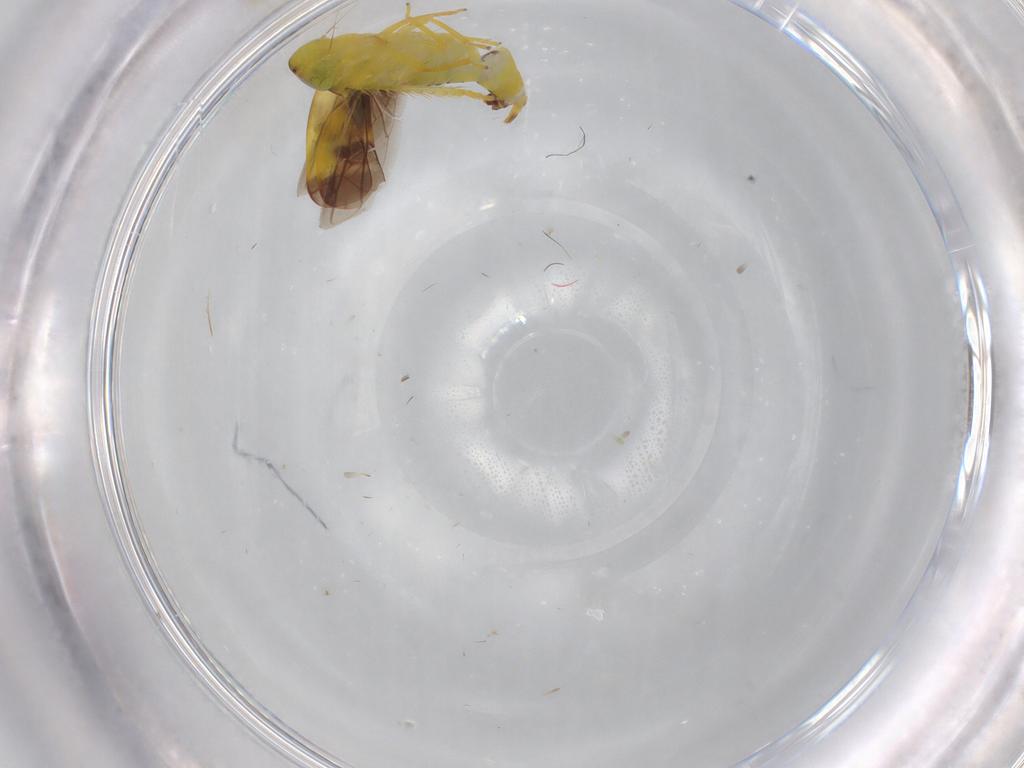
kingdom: Animalia
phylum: Arthropoda
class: Insecta
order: Hemiptera
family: Cicadellidae
